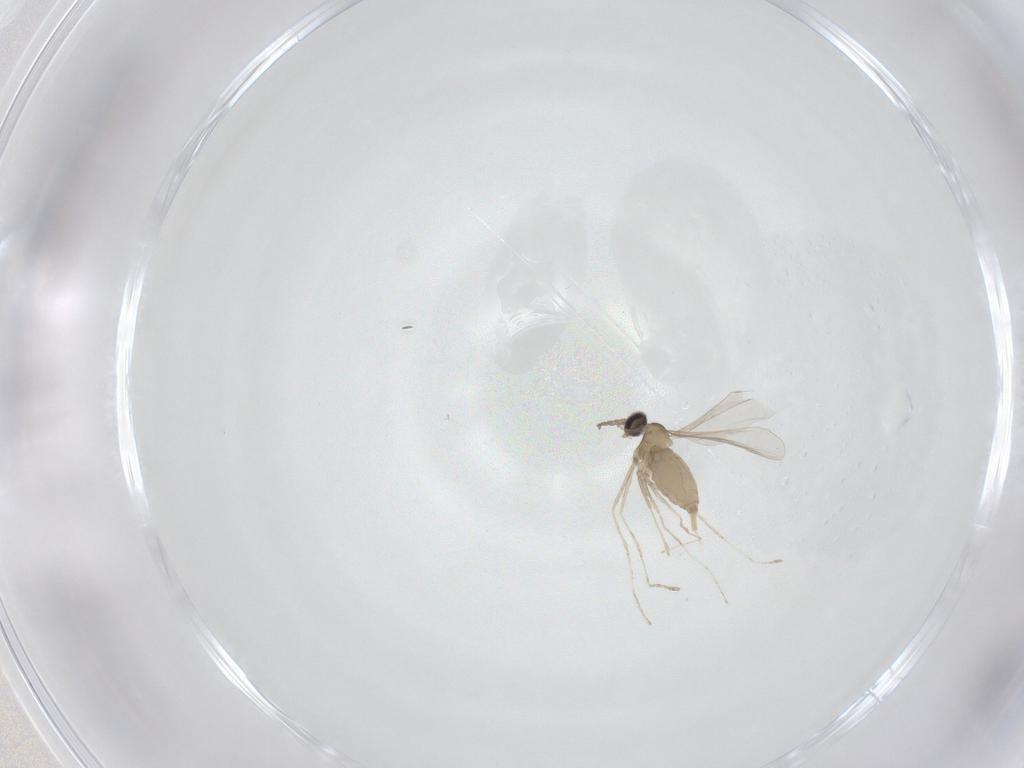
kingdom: Animalia
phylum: Arthropoda
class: Insecta
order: Diptera
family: Cecidomyiidae
